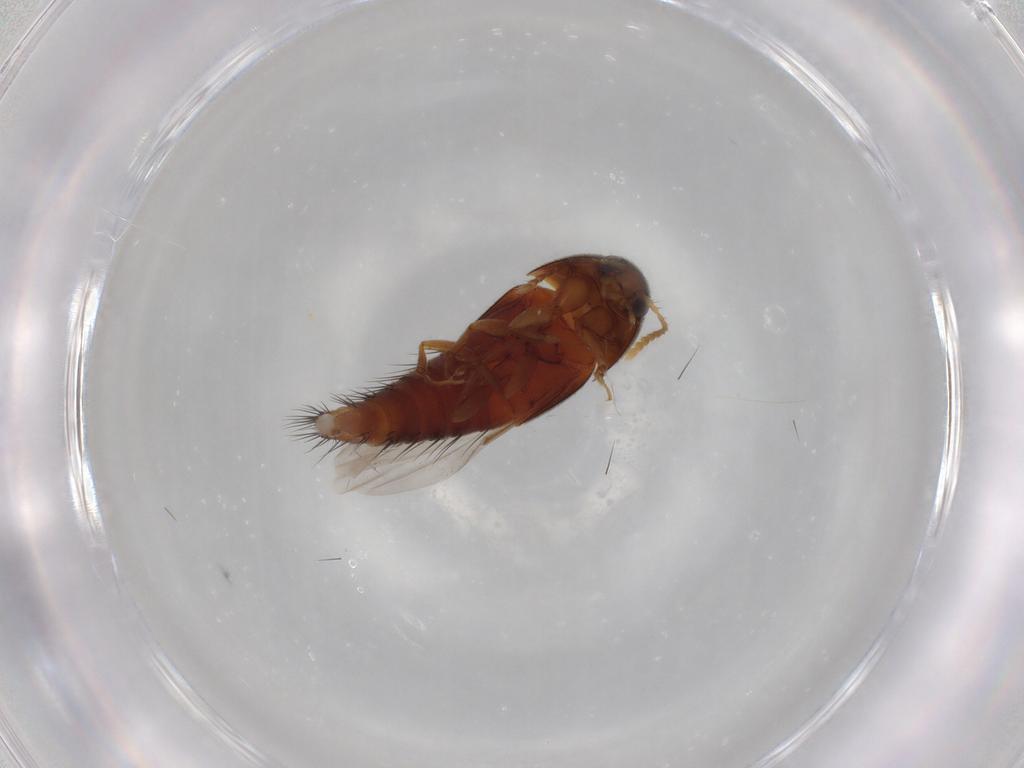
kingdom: Animalia
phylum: Arthropoda
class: Insecta
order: Coleoptera
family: Staphylinidae
